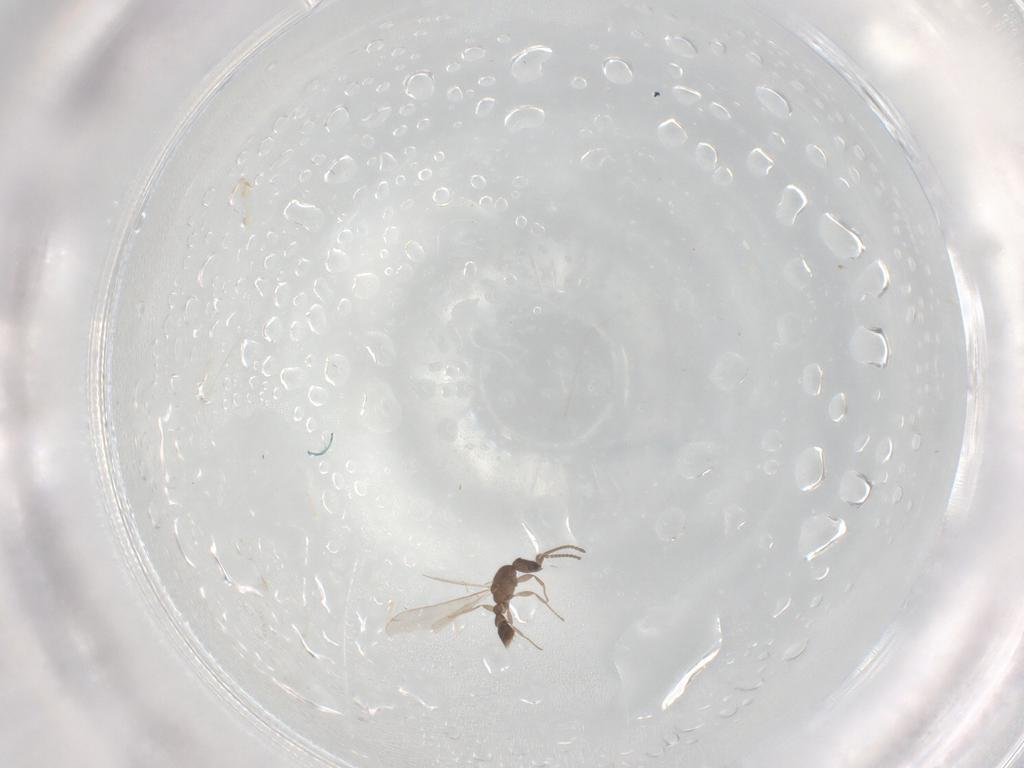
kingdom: Animalia
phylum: Arthropoda
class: Insecta
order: Hymenoptera
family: Formicidae
